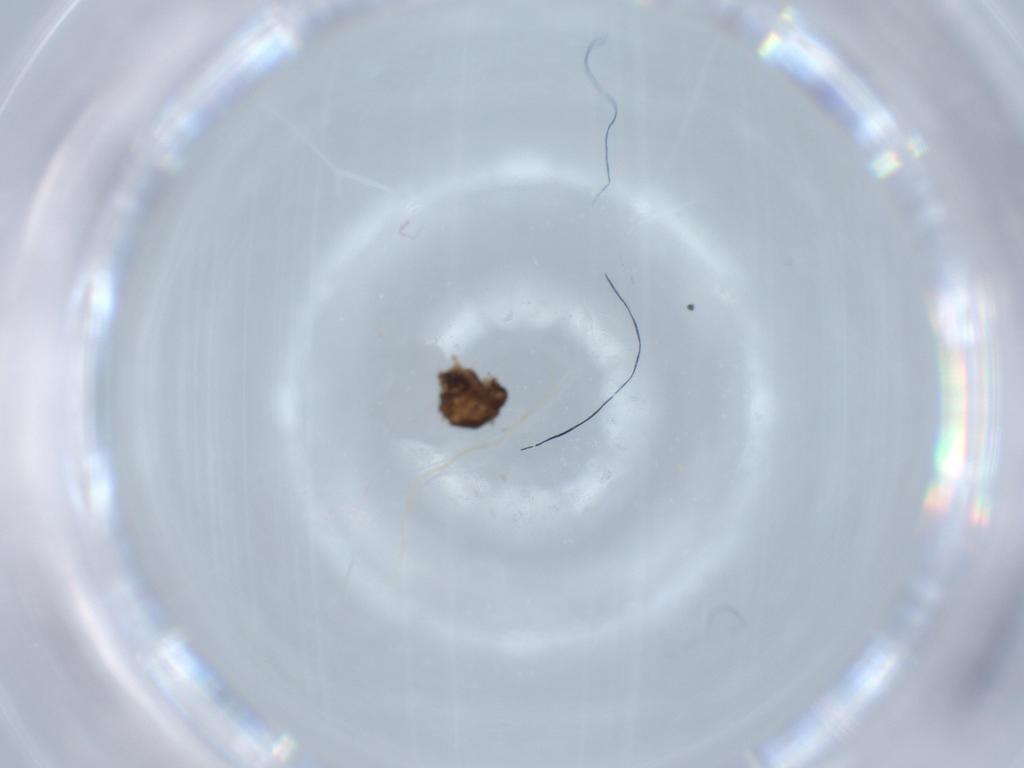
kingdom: Animalia
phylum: Arthropoda
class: Insecta
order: Diptera
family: Ephydridae
